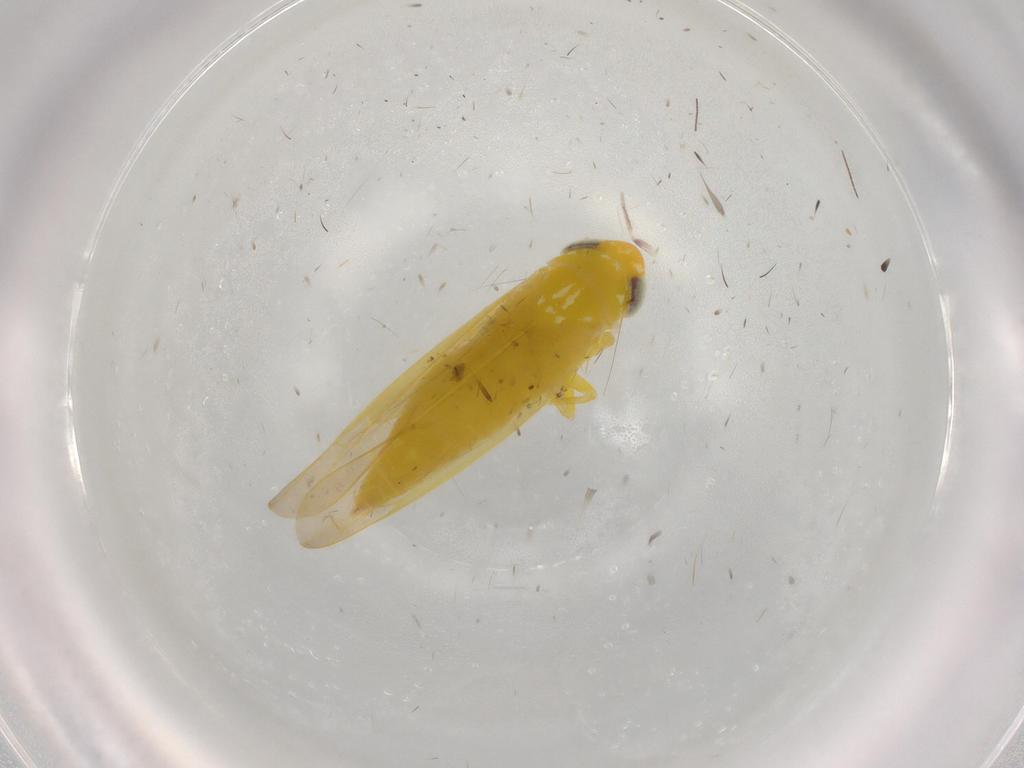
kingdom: Animalia
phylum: Arthropoda
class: Insecta
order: Hemiptera
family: Cicadellidae
